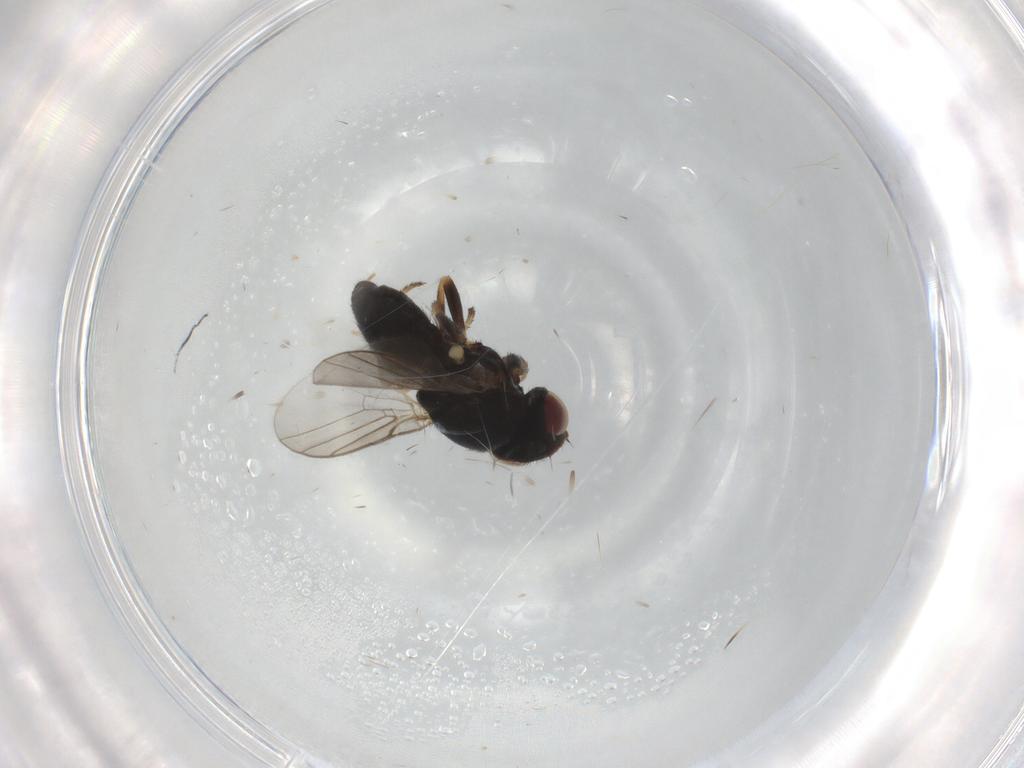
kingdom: Animalia
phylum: Arthropoda
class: Insecta
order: Diptera
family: Chloropidae
